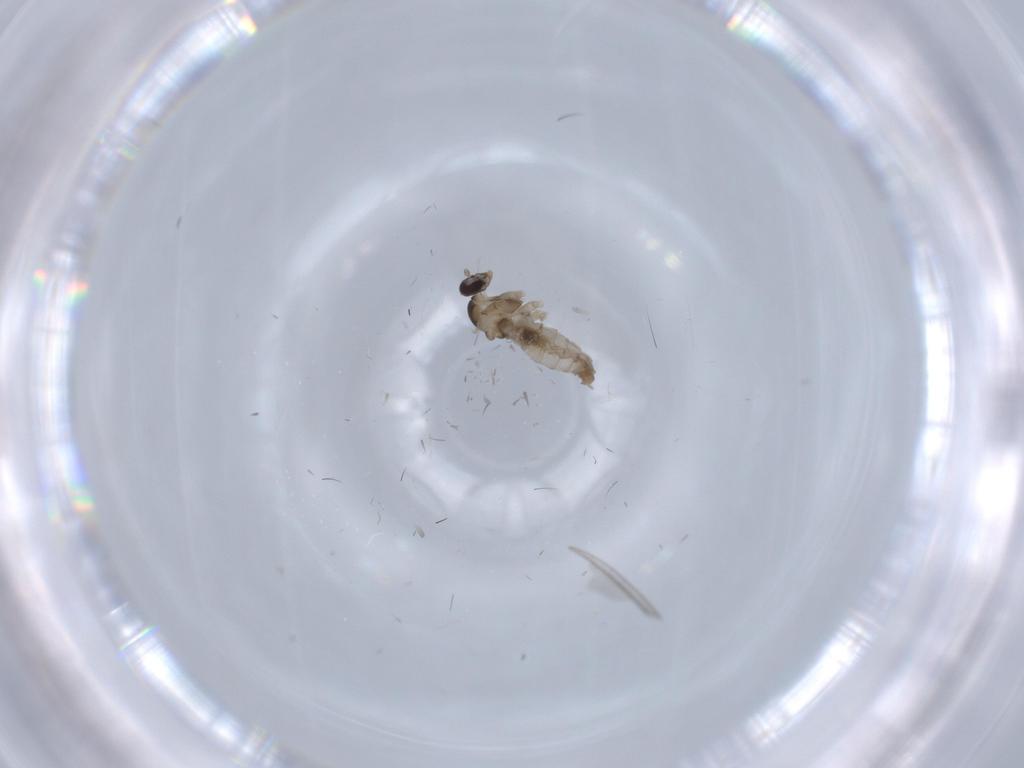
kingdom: Animalia
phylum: Arthropoda
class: Insecta
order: Diptera
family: Cecidomyiidae
